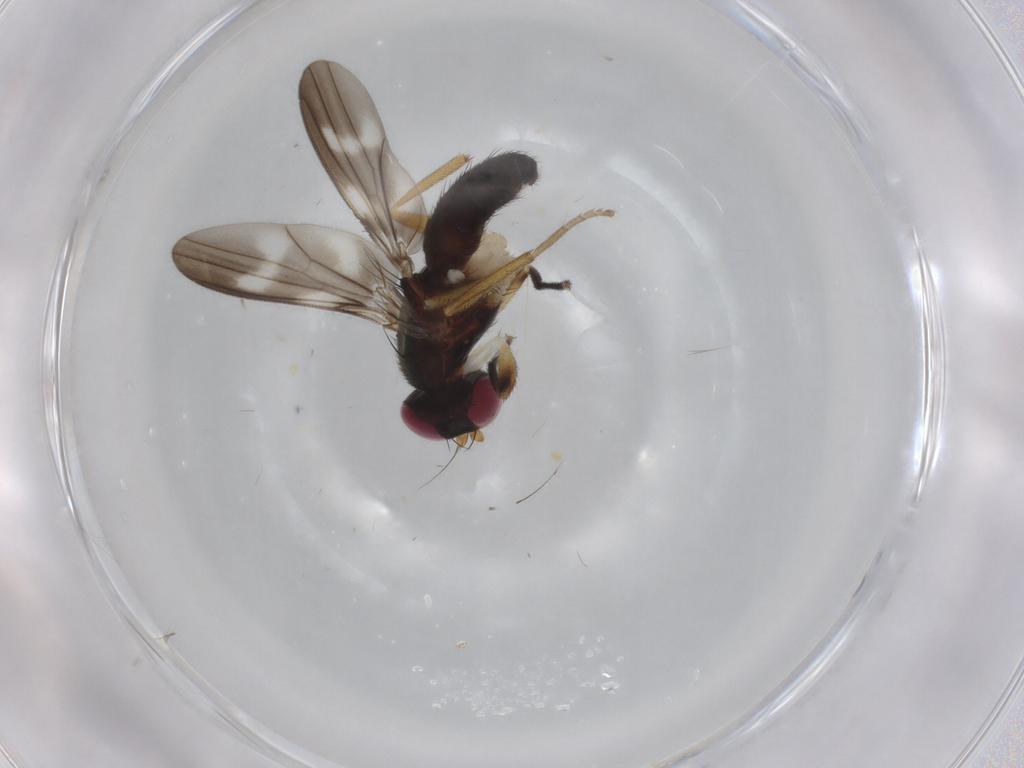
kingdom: Animalia
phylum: Arthropoda
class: Insecta
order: Diptera
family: Clusiidae
